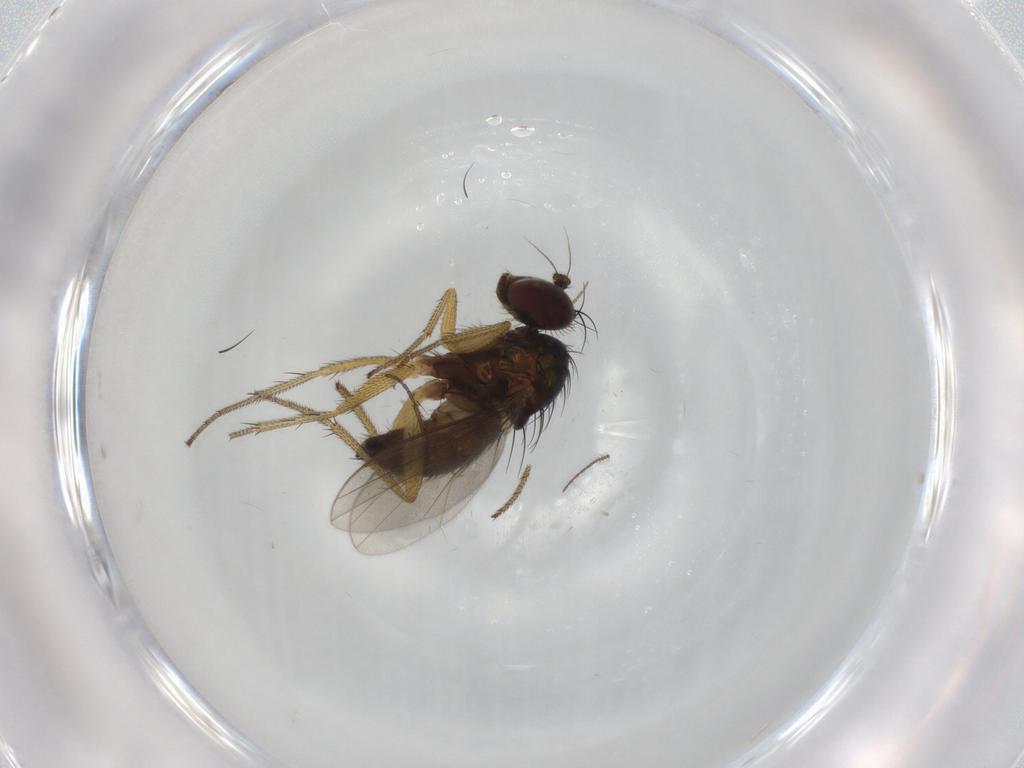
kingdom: Animalia
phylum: Arthropoda
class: Insecta
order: Diptera
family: Sciaridae
